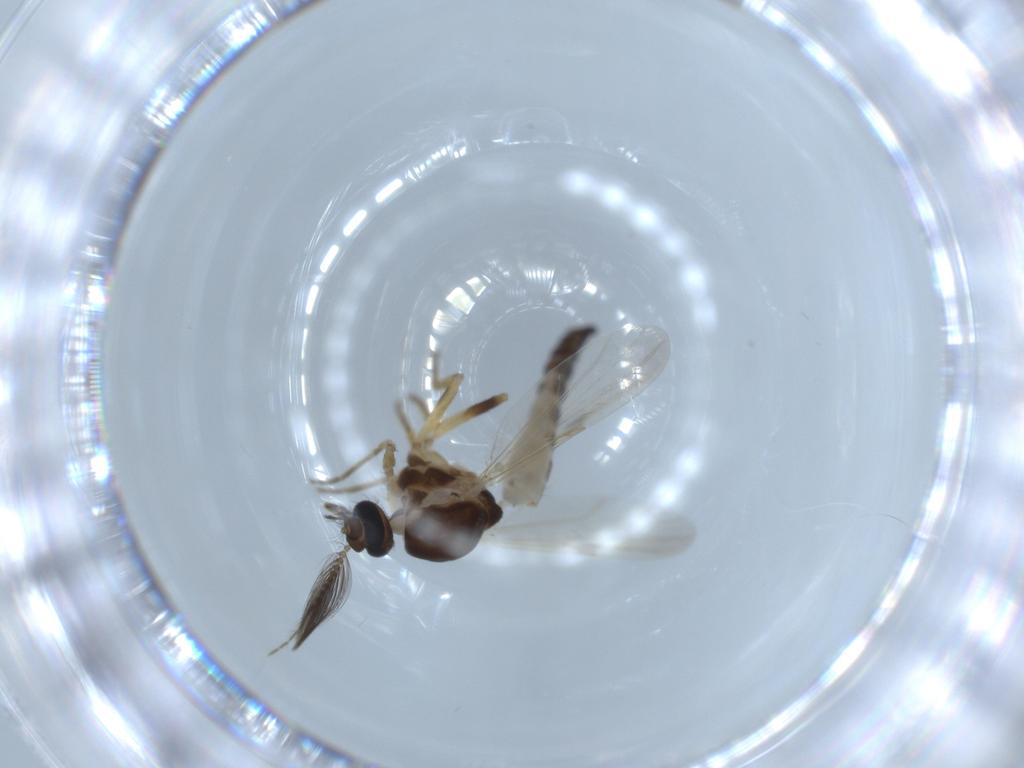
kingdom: Animalia
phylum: Arthropoda
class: Insecta
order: Diptera
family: Ceratopogonidae
